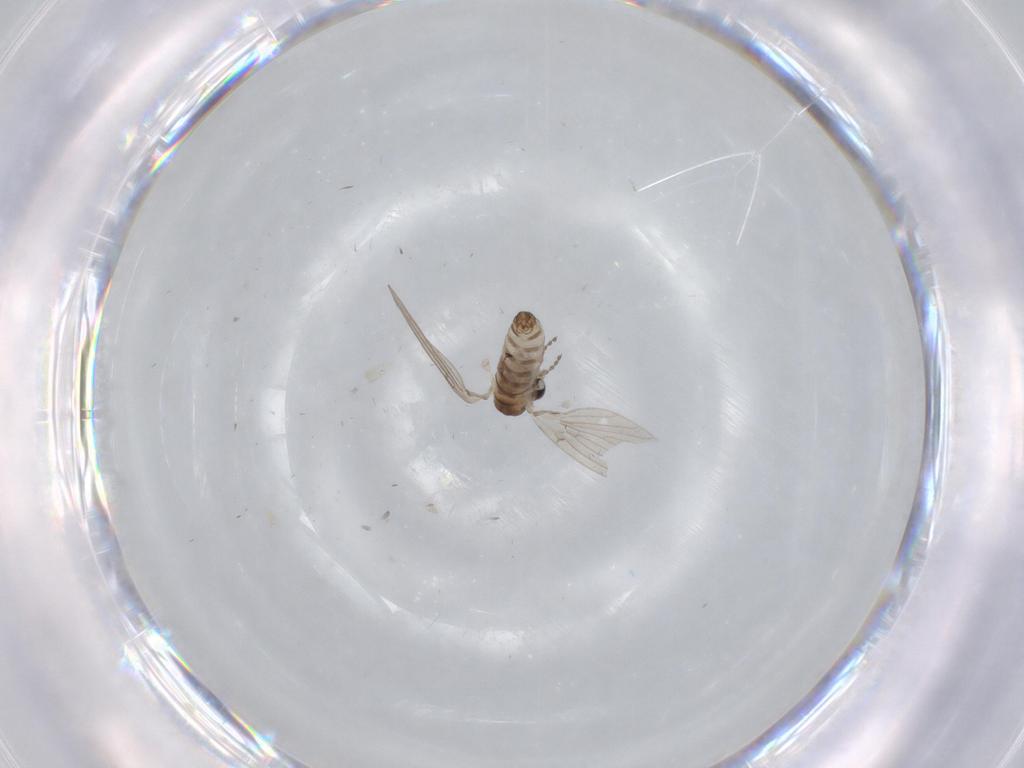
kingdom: Animalia
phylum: Arthropoda
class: Insecta
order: Diptera
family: Psychodidae
